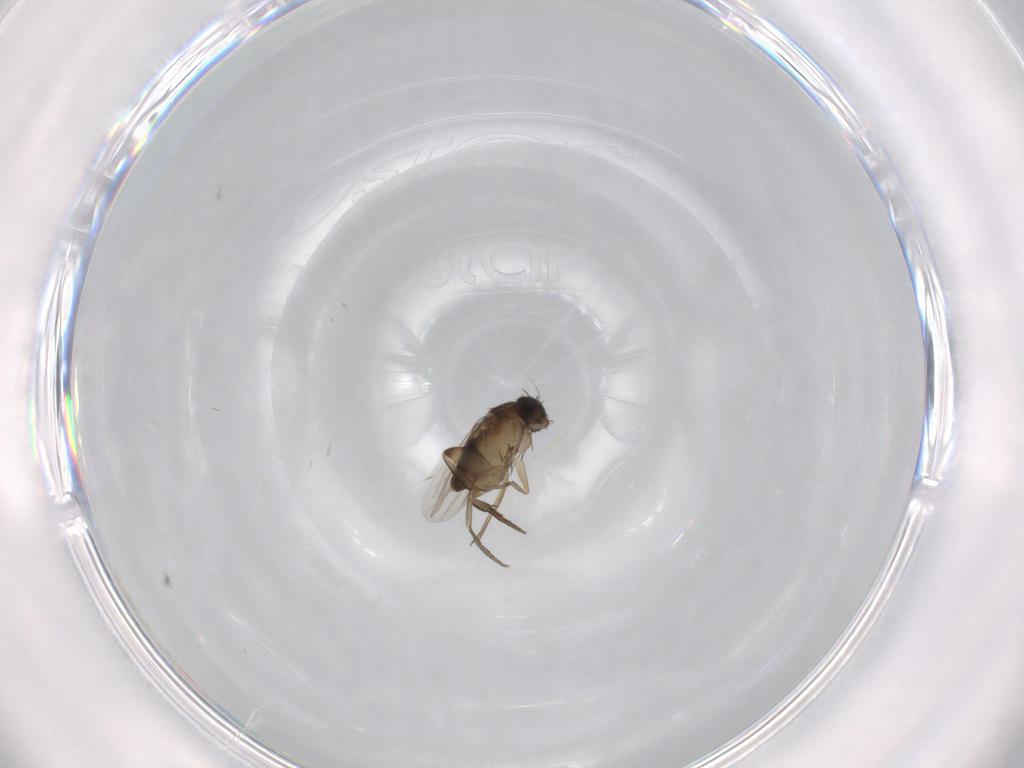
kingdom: Animalia
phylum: Arthropoda
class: Insecta
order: Diptera
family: Phoridae
